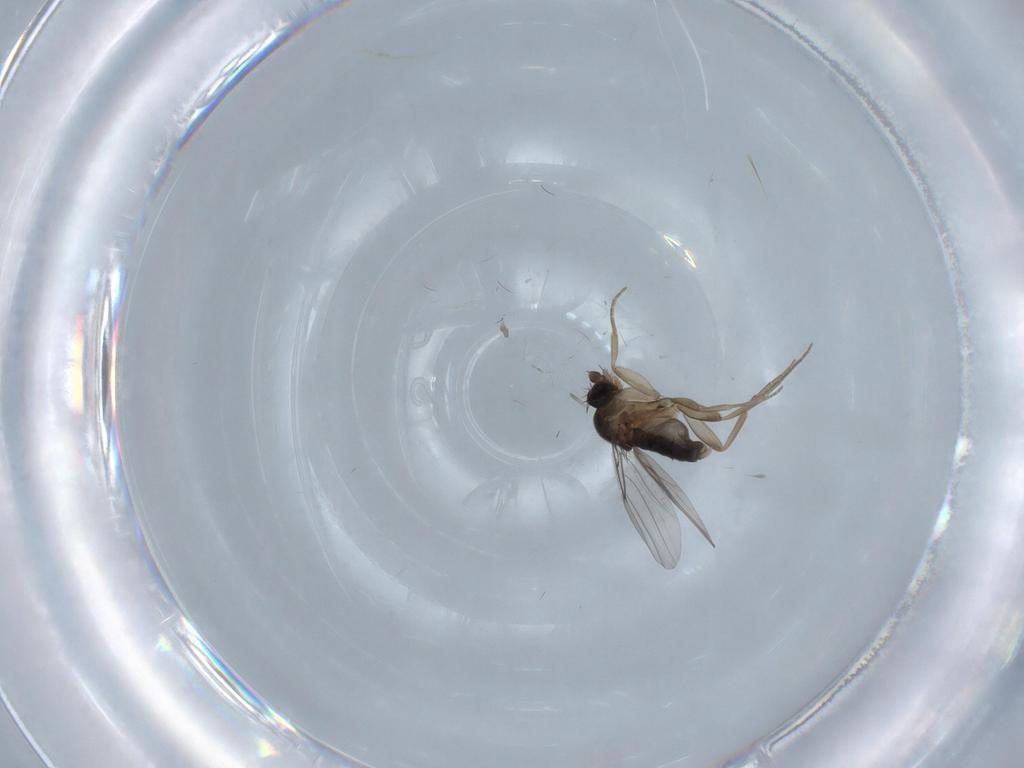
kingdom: Animalia
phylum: Arthropoda
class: Insecta
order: Diptera
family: Phoridae
